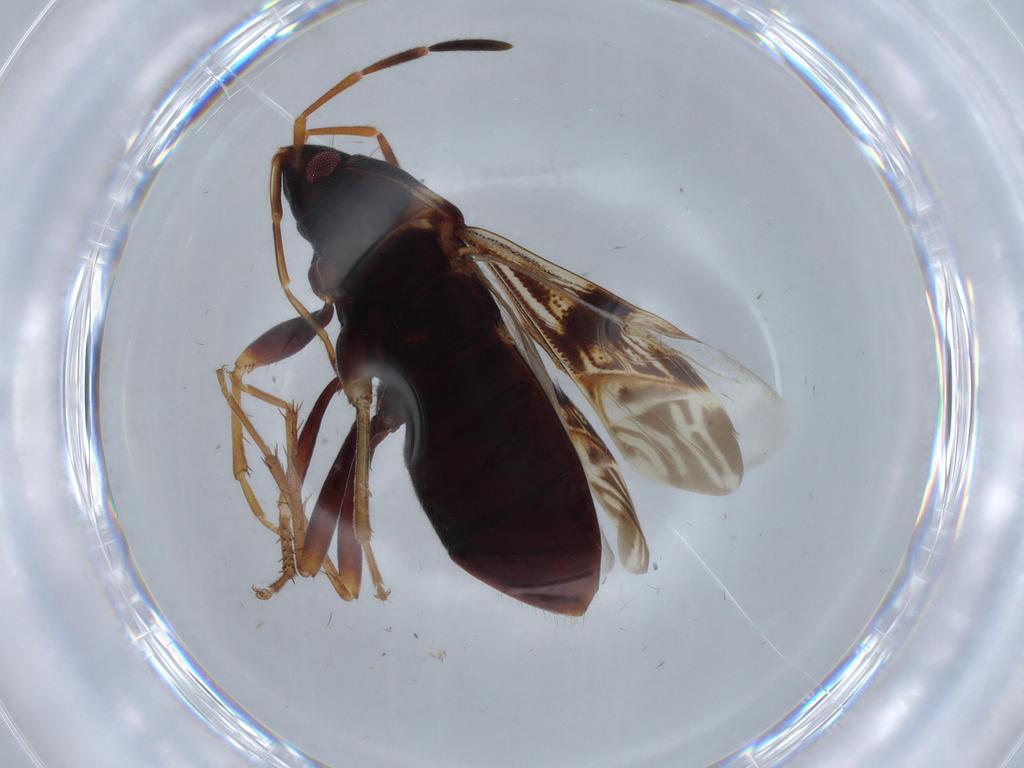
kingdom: Animalia
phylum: Arthropoda
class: Insecta
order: Hemiptera
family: Rhyparochromidae
